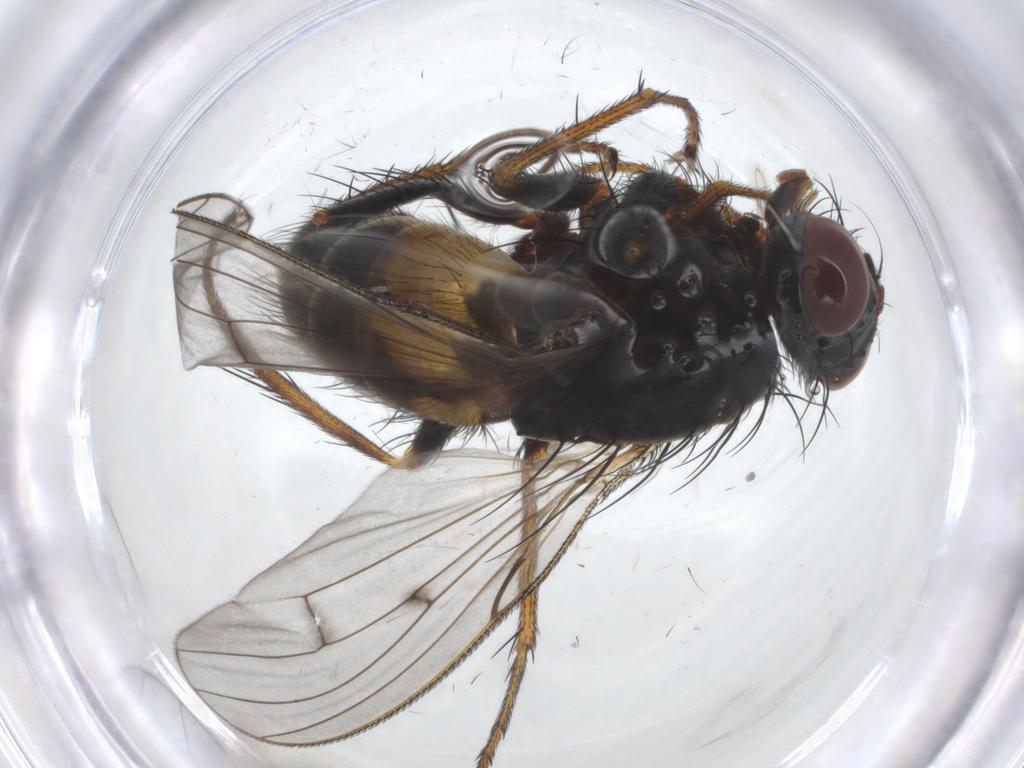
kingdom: Animalia
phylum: Arthropoda
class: Insecta
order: Diptera
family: Muscidae
